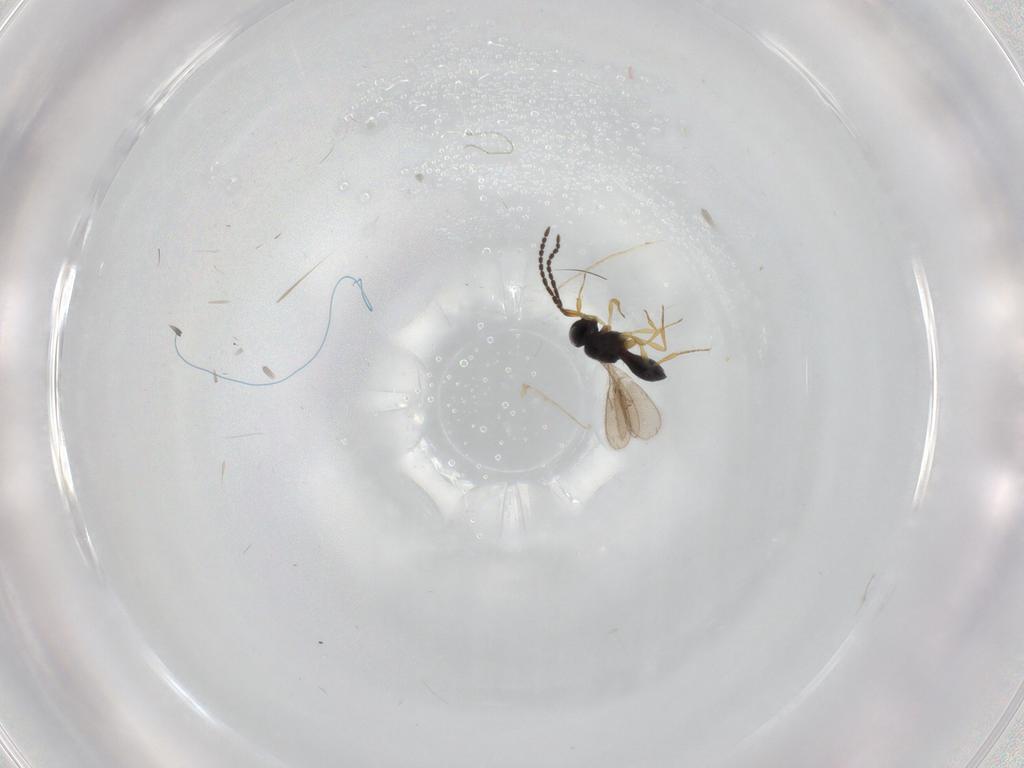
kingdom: Animalia
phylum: Arthropoda
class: Insecta
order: Hymenoptera
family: Scelionidae
